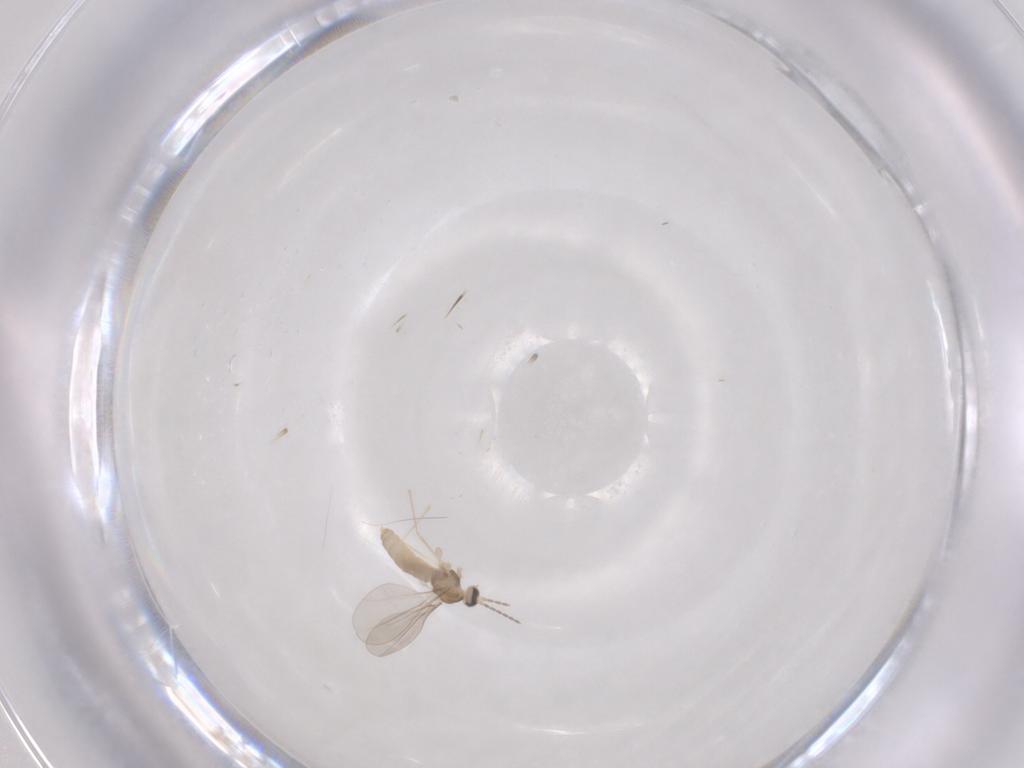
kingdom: Animalia
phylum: Arthropoda
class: Insecta
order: Diptera
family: Cecidomyiidae
